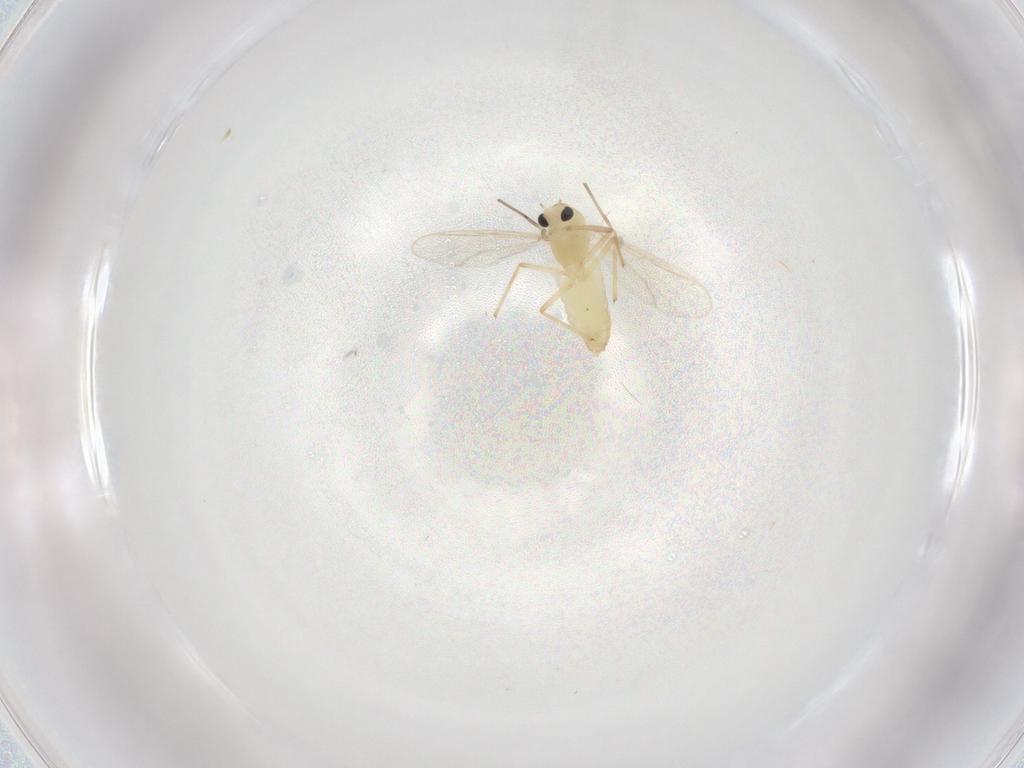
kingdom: Animalia
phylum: Arthropoda
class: Insecta
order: Diptera
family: Chironomidae
